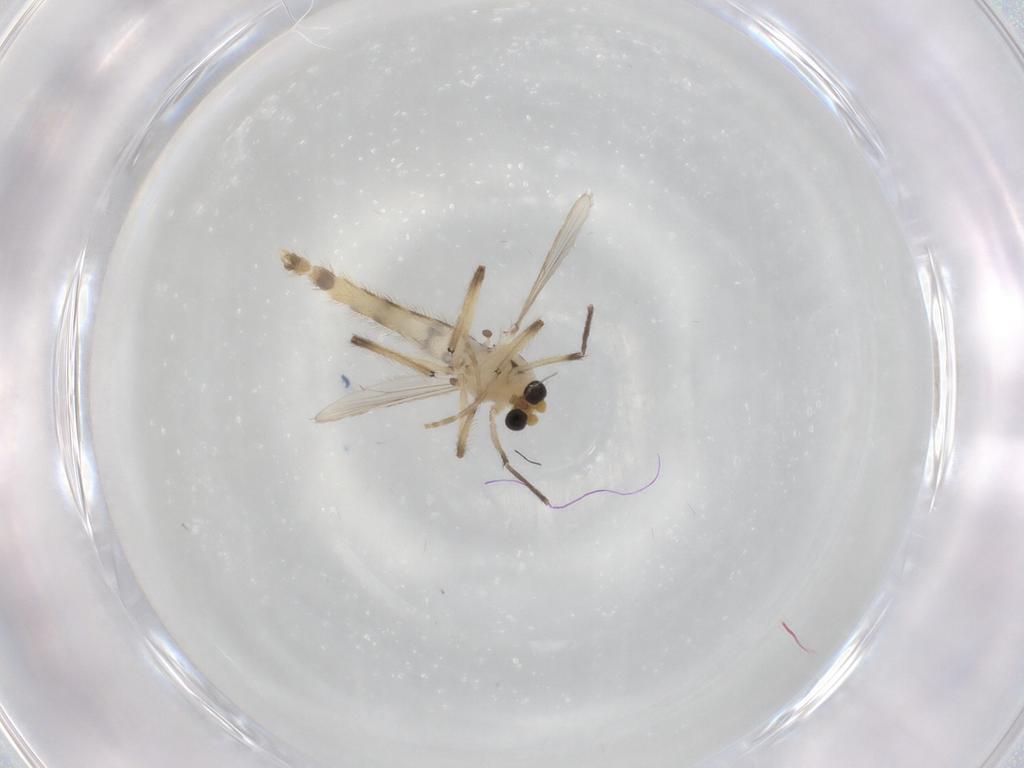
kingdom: Animalia
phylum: Arthropoda
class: Insecta
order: Diptera
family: Chironomidae
